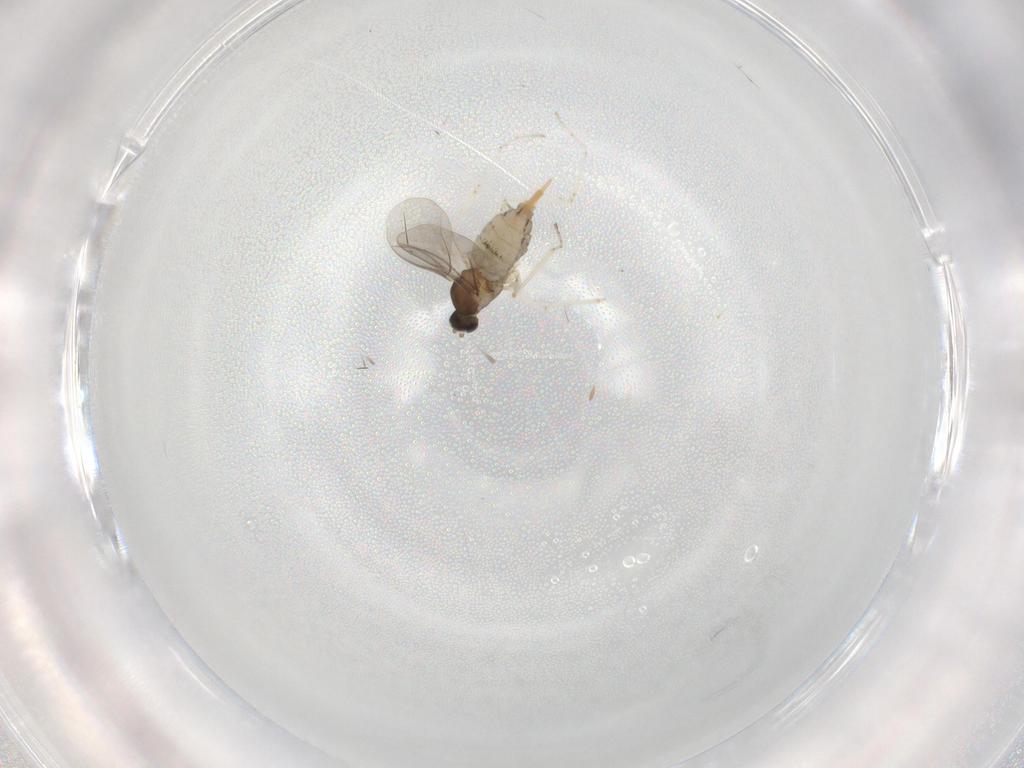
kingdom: Animalia
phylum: Arthropoda
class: Insecta
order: Diptera
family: Cecidomyiidae
